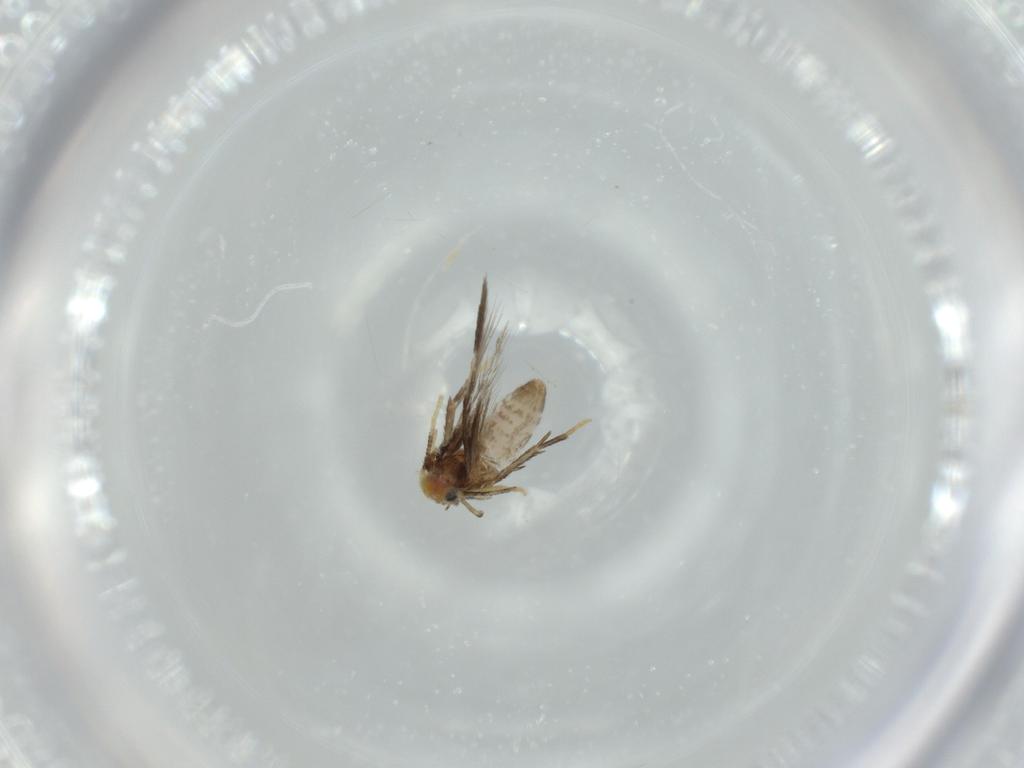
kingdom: Animalia
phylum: Arthropoda
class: Insecta
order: Lepidoptera
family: Nepticulidae
